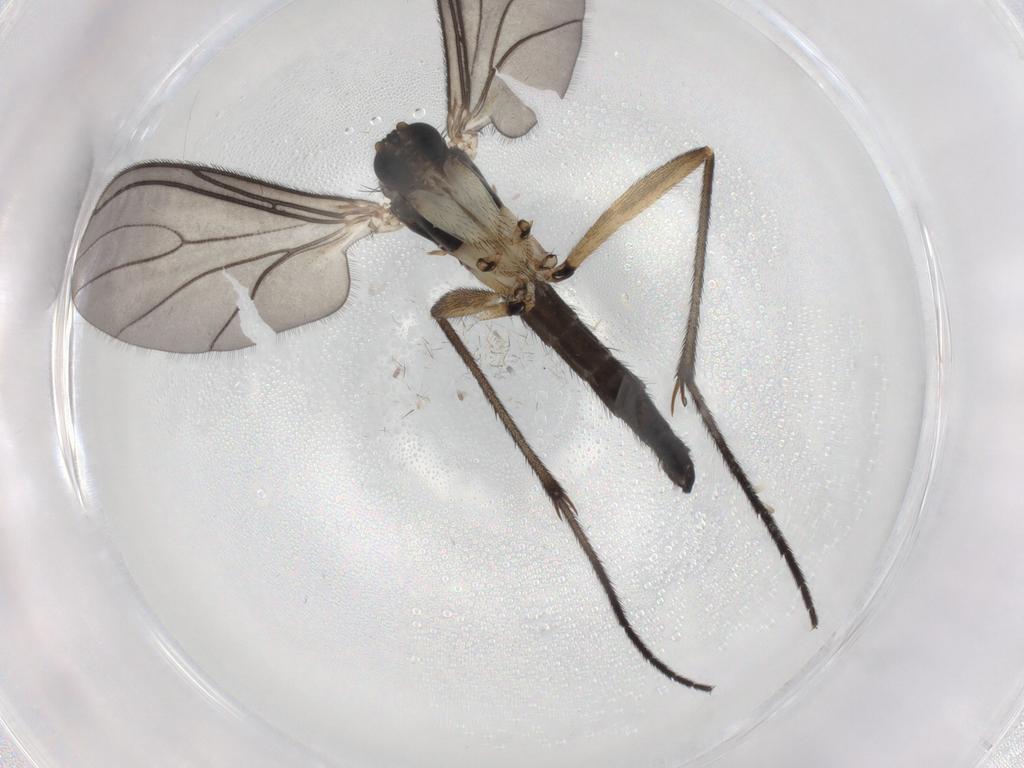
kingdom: Animalia
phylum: Arthropoda
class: Insecta
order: Diptera
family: Sciaridae
